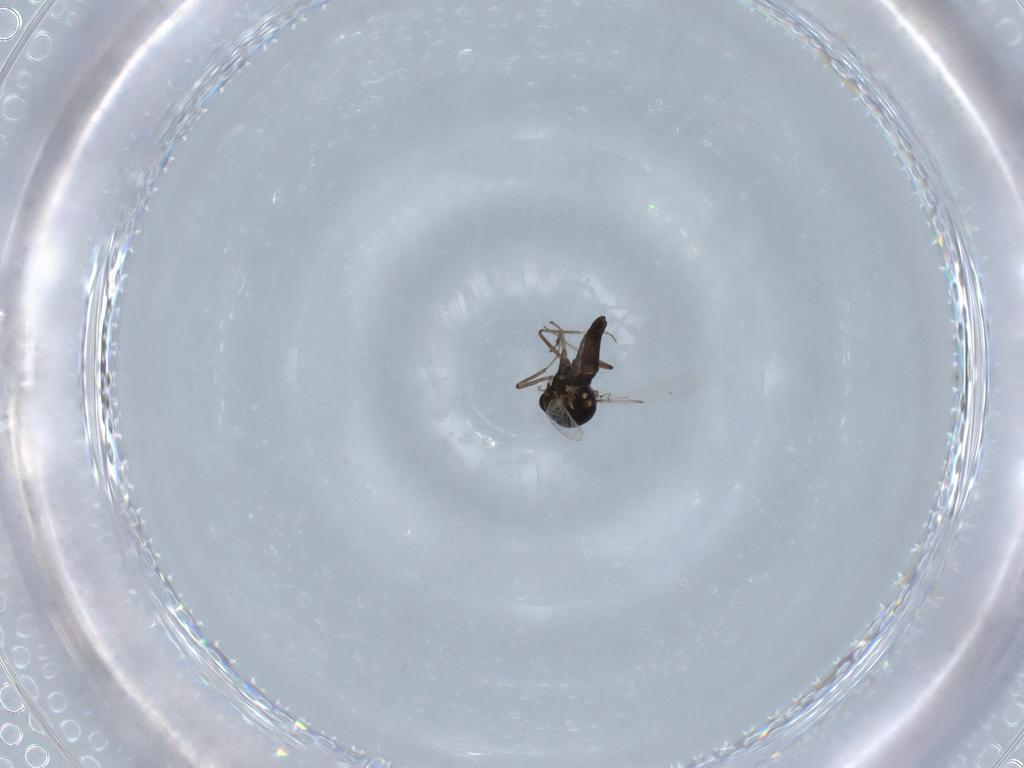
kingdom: Animalia
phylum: Arthropoda
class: Insecta
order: Diptera
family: Ceratopogonidae
